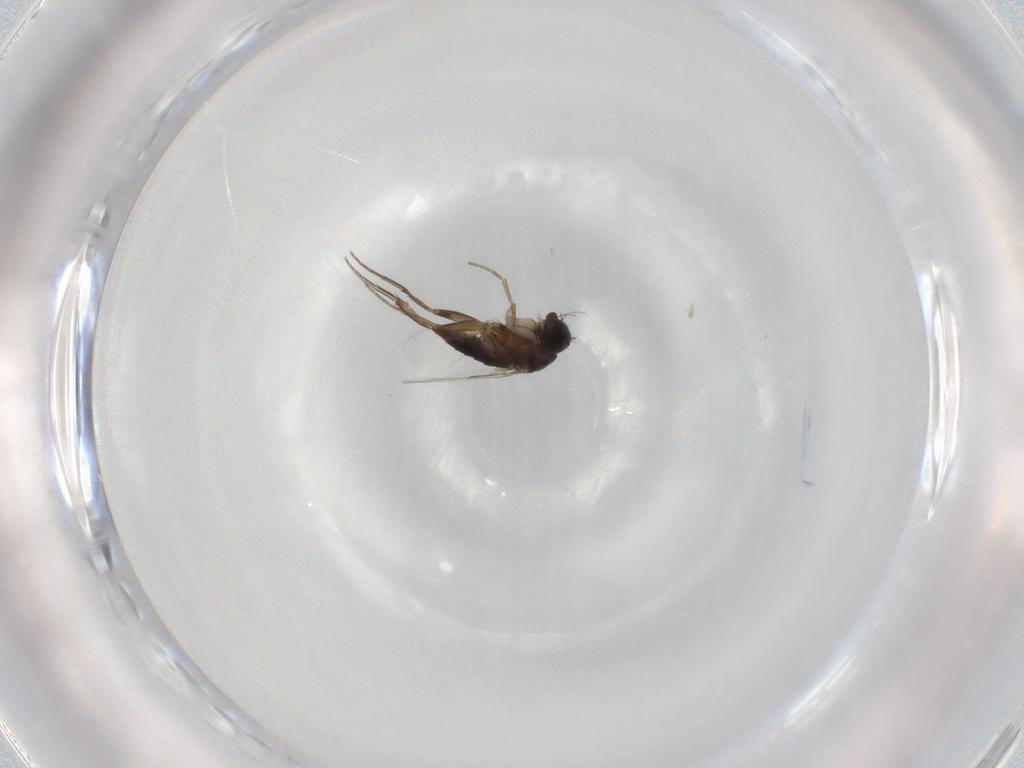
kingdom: Animalia
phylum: Arthropoda
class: Insecta
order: Diptera
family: Phoridae
